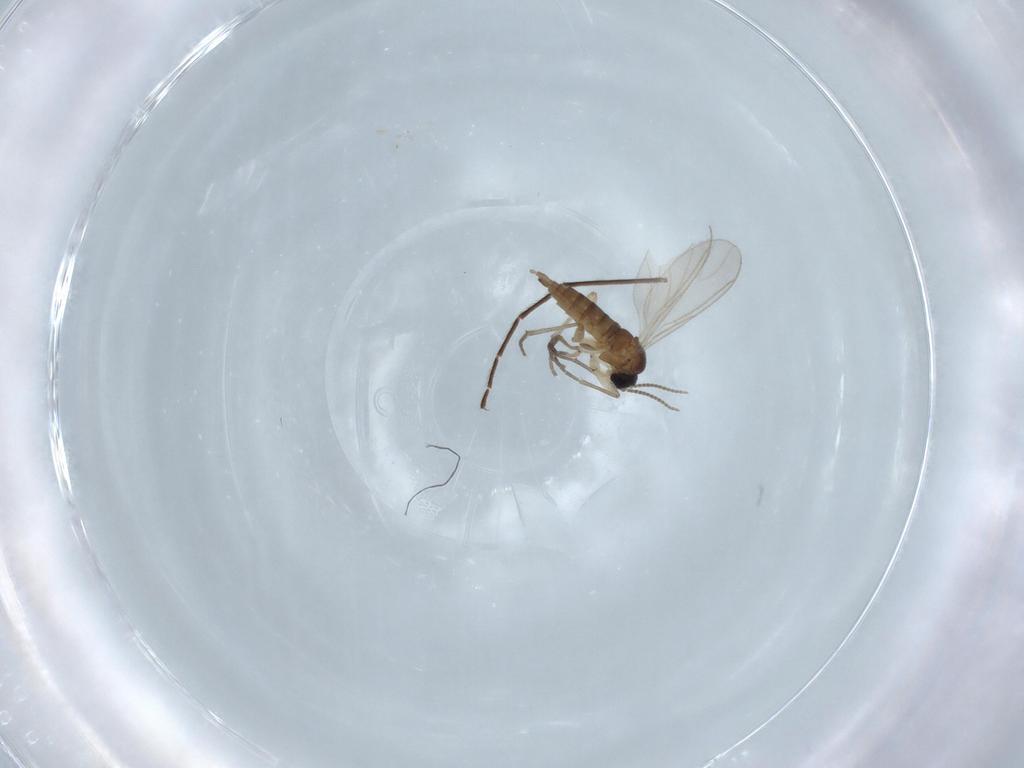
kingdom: Animalia
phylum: Arthropoda
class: Insecta
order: Diptera
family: Sciaridae
